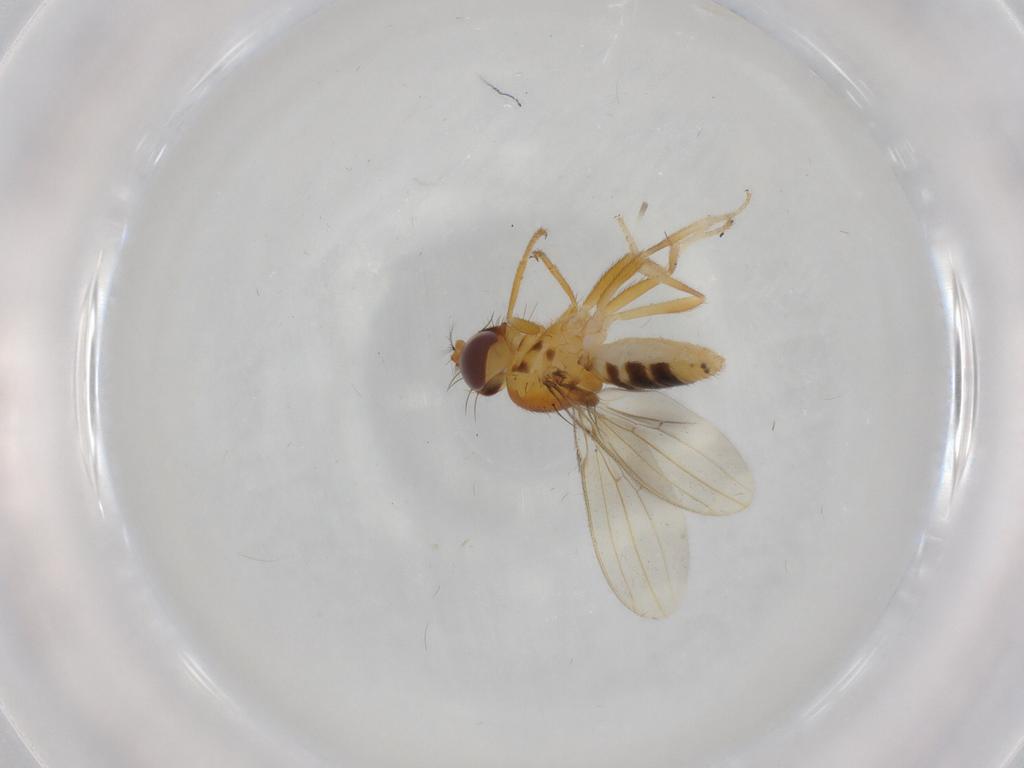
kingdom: Animalia
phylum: Arthropoda
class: Insecta
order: Diptera
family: Periscelididae
